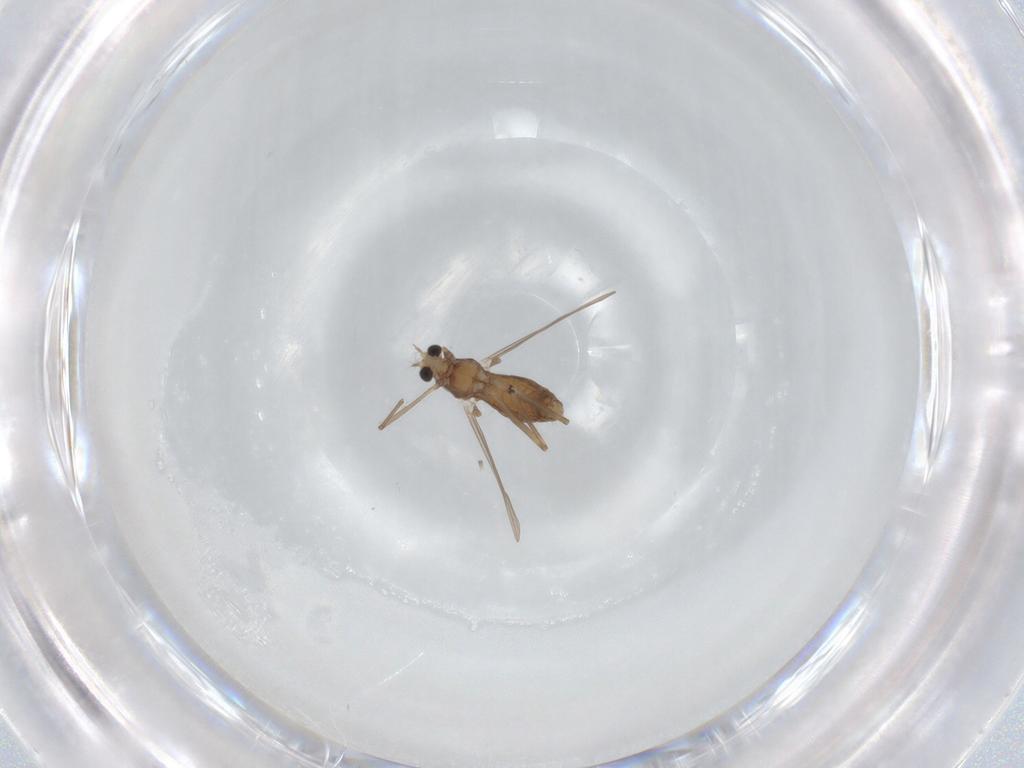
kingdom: Animalia
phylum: Arthropoda
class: Insecta
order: Diptera
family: Chironomidae
